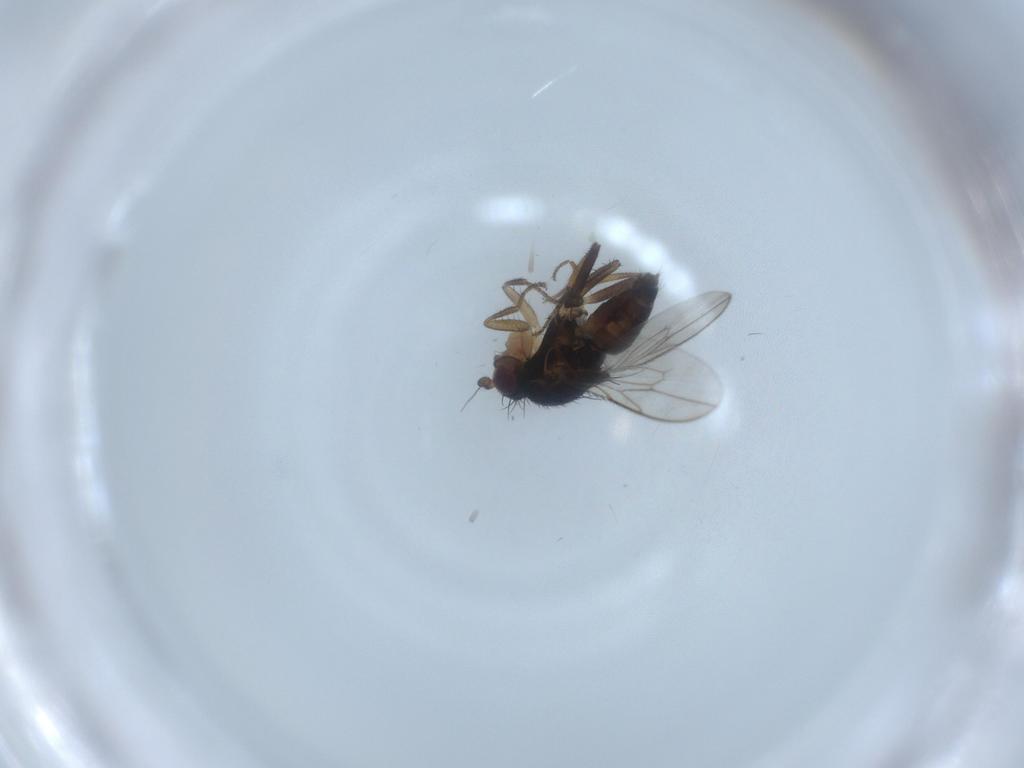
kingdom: Animalia
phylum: Arthropoda
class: Insecta
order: Diptera
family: Sphaeroceridae
